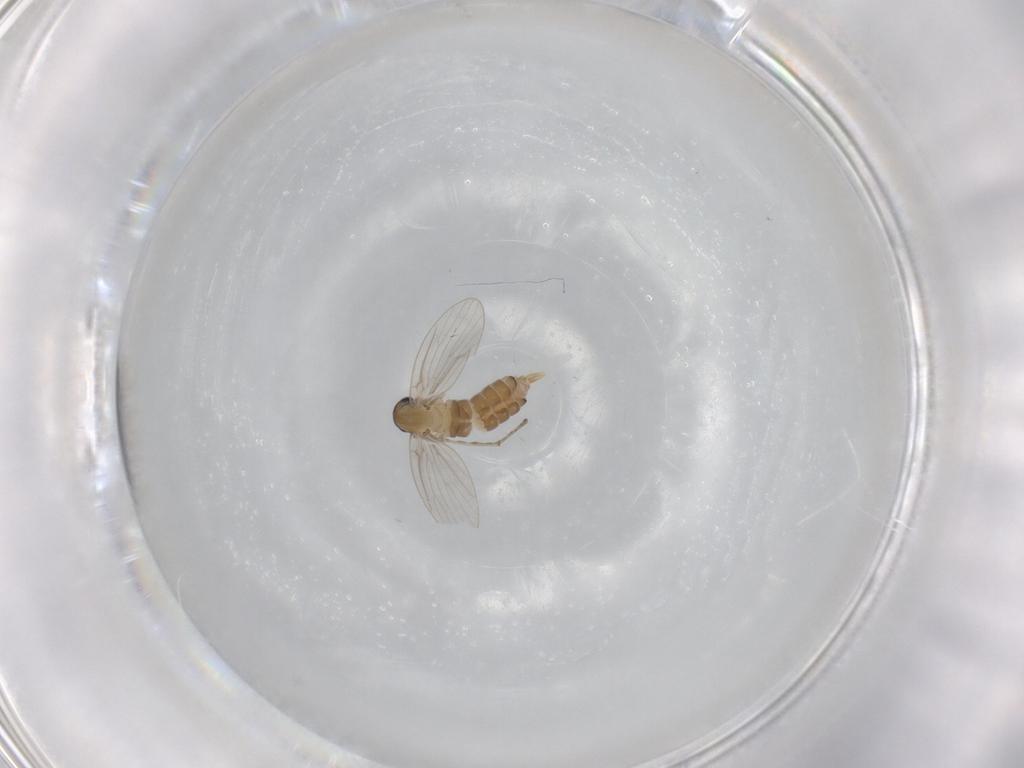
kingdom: Animalia
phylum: Arthropoda
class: Insecta
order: Diptera
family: Psychodidae
